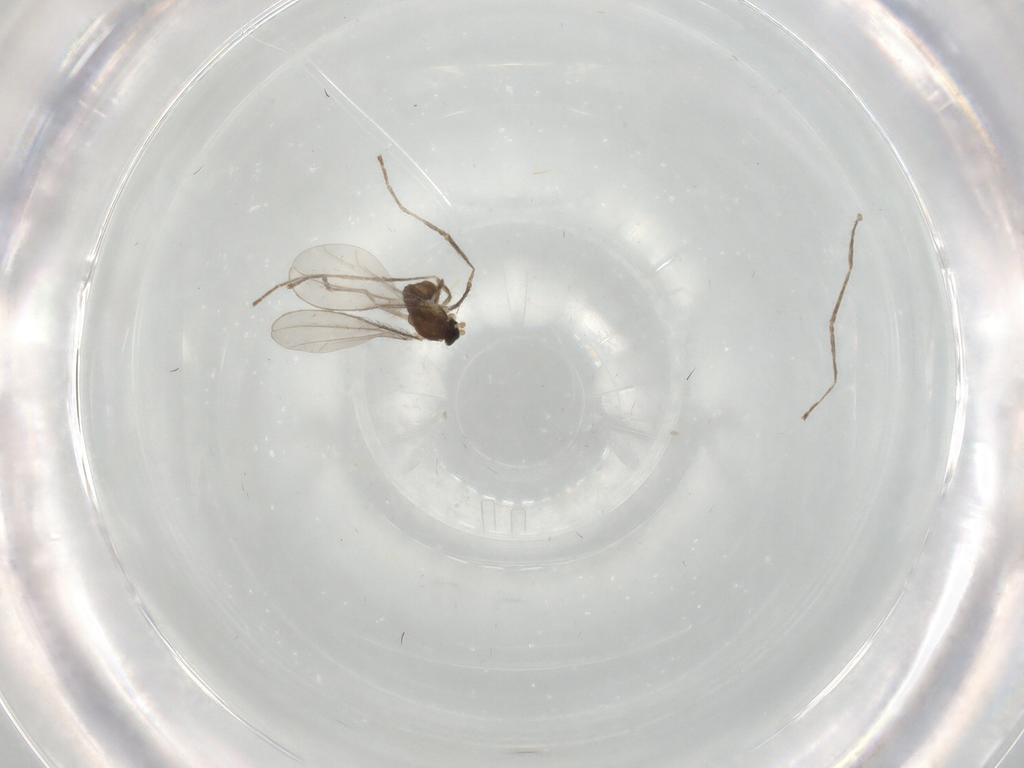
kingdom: Animalia
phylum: Arthropoda
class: Insecta
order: Diptera
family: Cecidomyiidae
